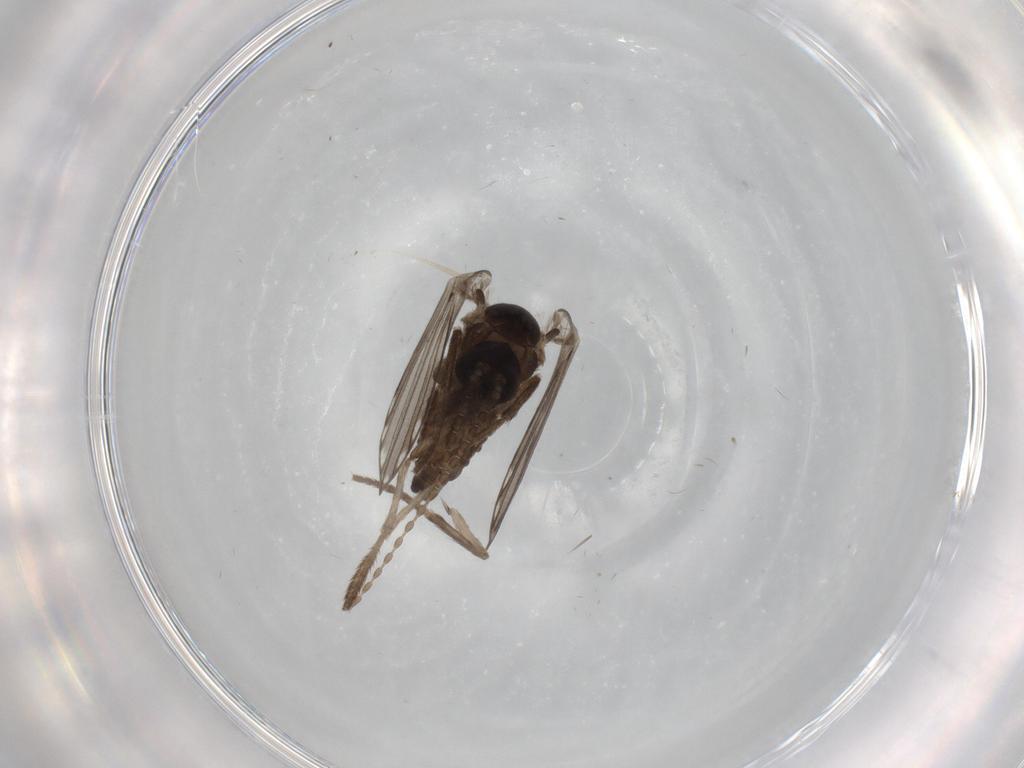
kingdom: Animalia
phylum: Arthropoda
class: Insecta
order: Diptera
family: Psychodidae
